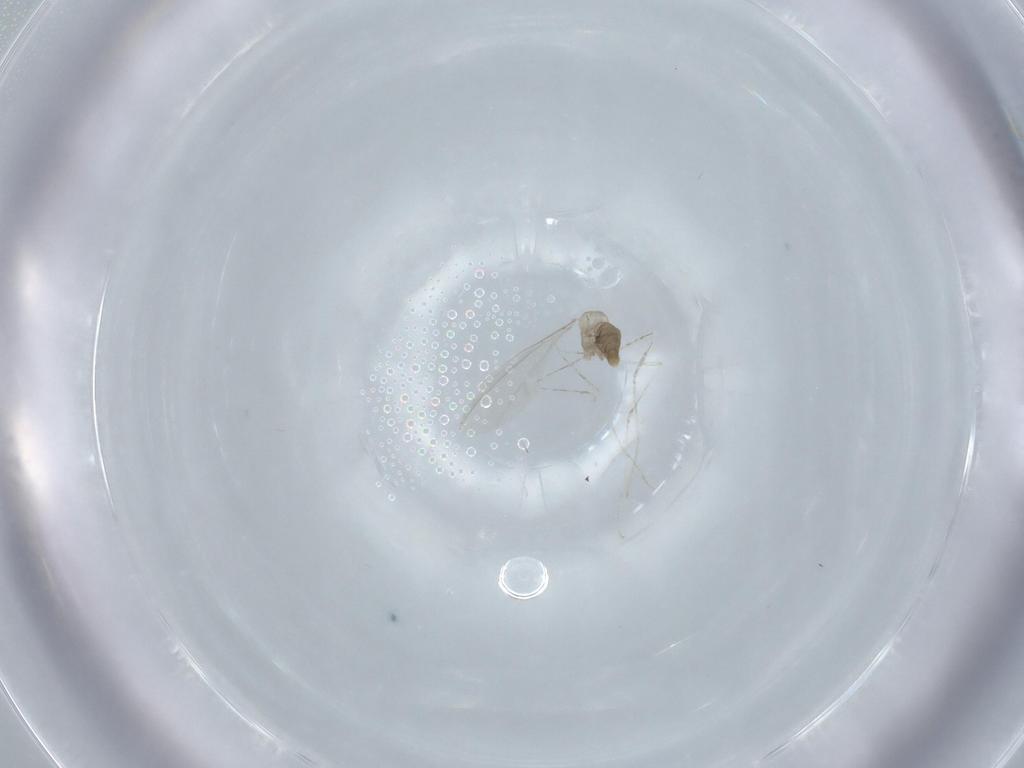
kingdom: Animalia
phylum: Arthropoda
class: Insecta
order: Diptera
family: Cecidomyiidae
